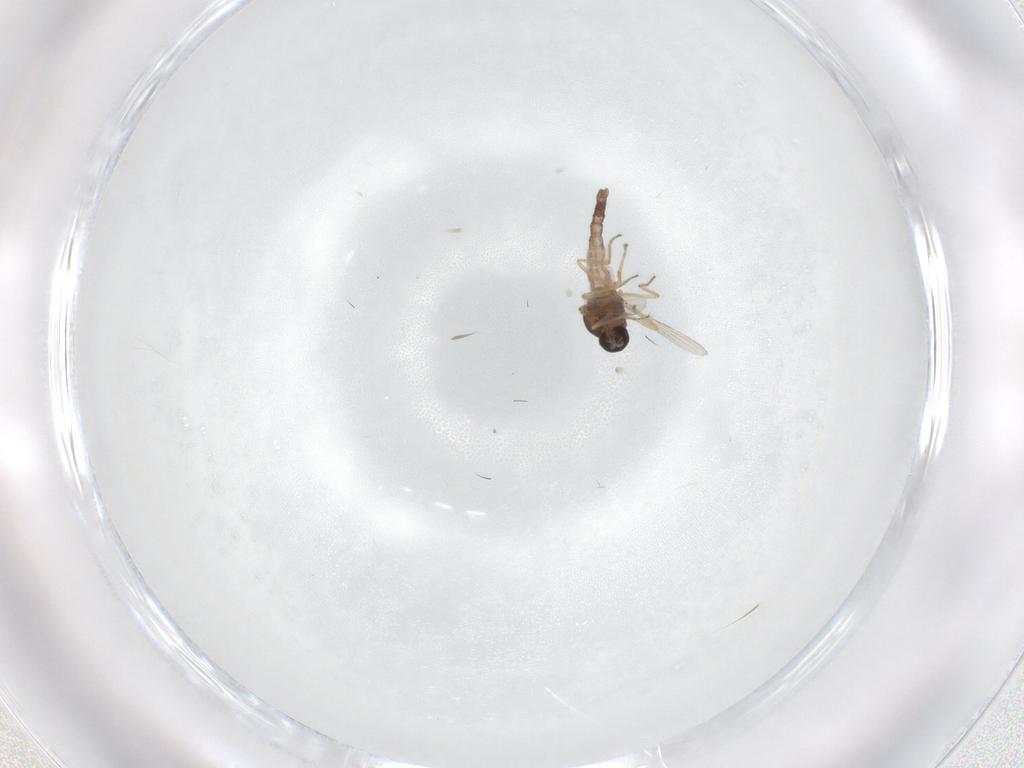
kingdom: Animalia
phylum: Arthropoda
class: Insecta
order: Diptera
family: Ceratopogonidae
